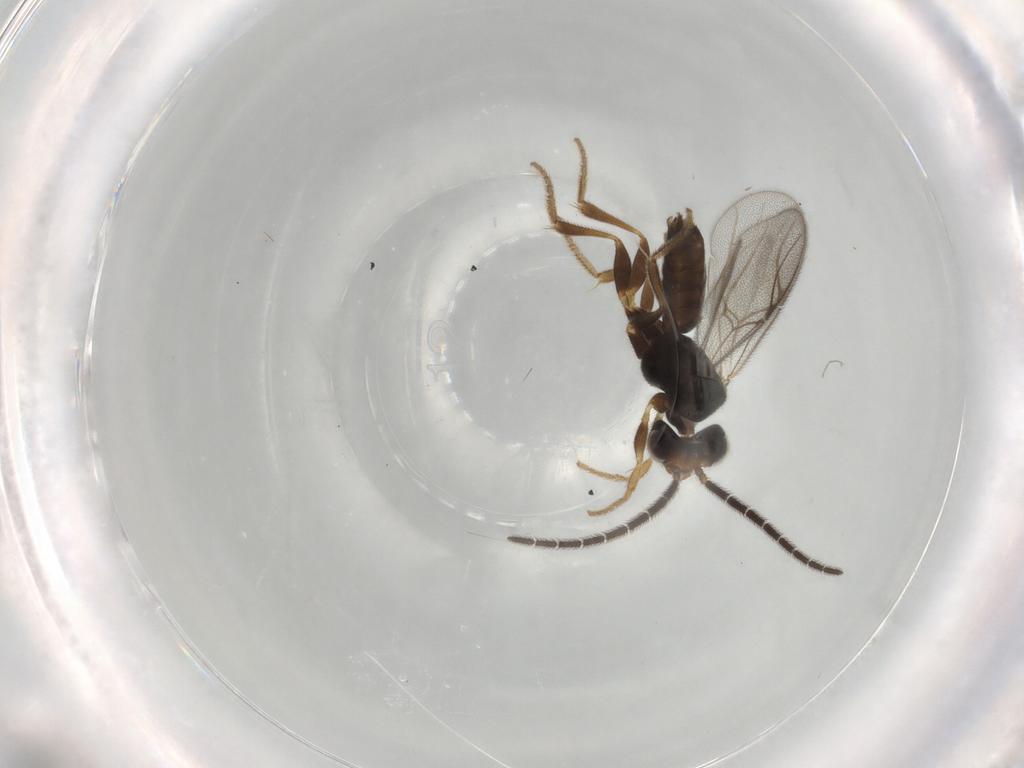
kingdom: Animalia
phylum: Arthropoda
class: Insecta
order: Hymenoptera
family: Dryinidae
